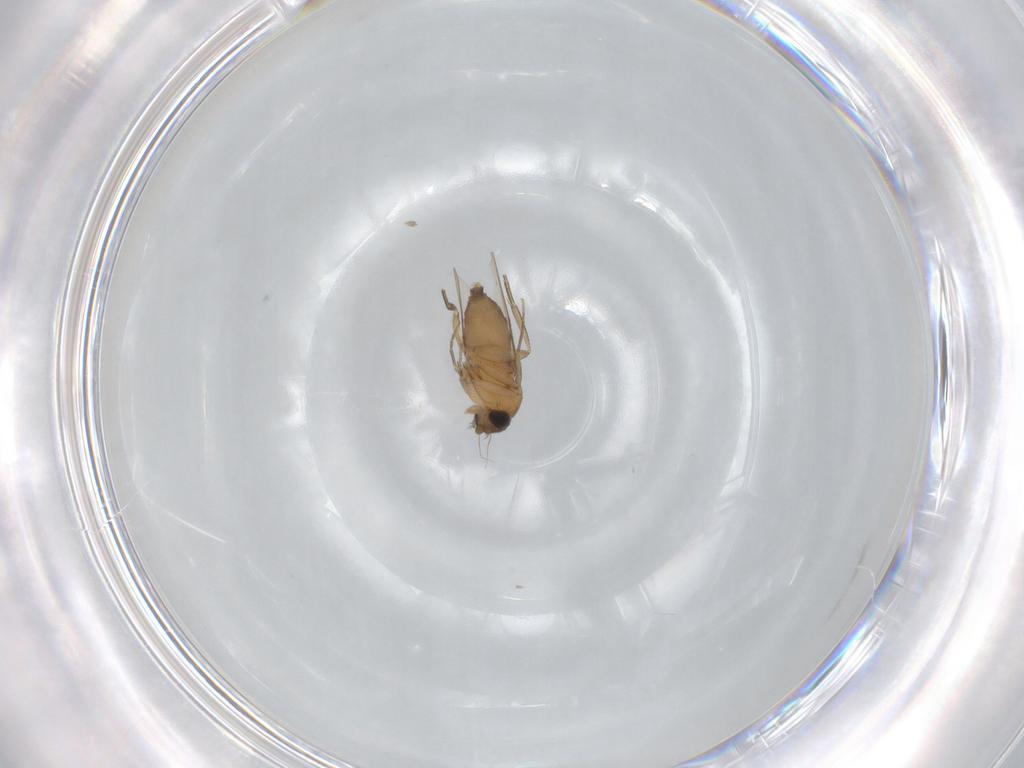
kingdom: Animalia
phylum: Arthropoda
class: Insecta
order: Diptera
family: Phoridae
